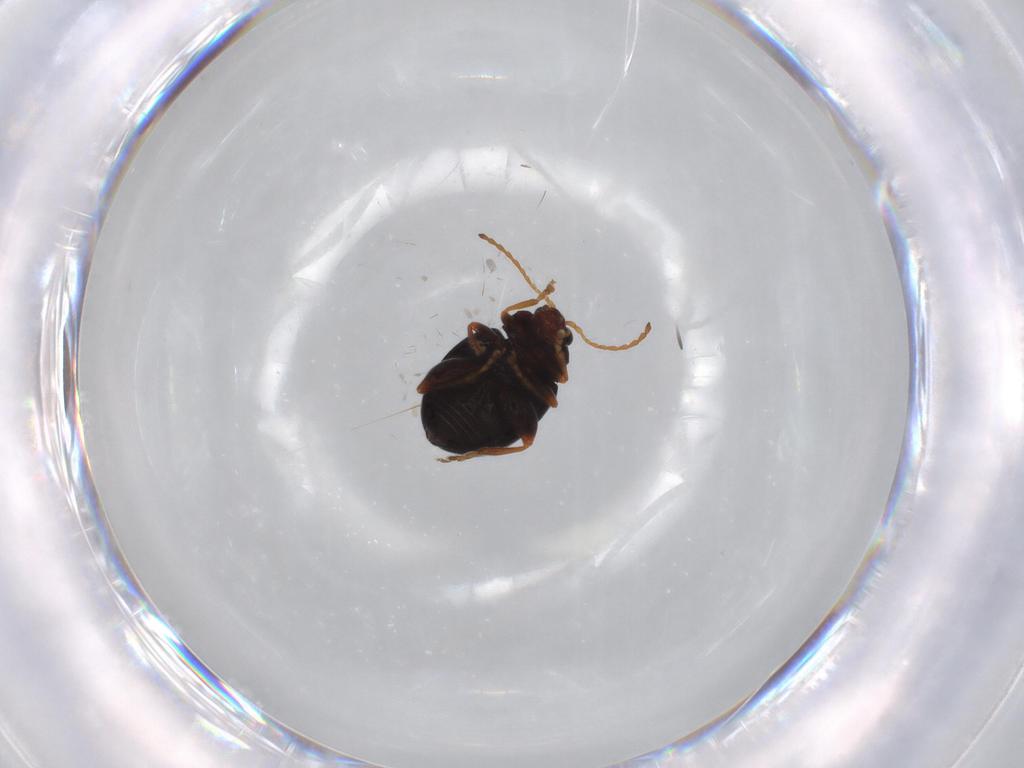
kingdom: Animalia
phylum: Arthropoda
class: Insecta
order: Coleoptera
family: Chrysomelidae
